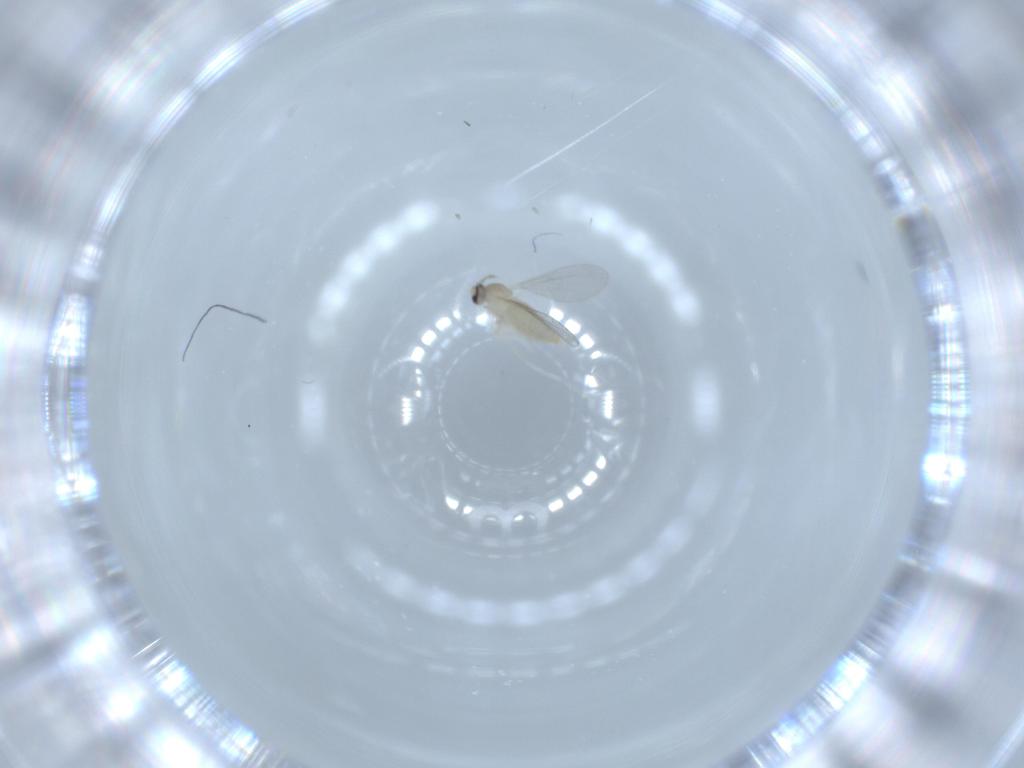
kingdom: Animalia
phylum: Arthropoda
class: Insecta
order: Diptera
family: Cecidomyiidae
